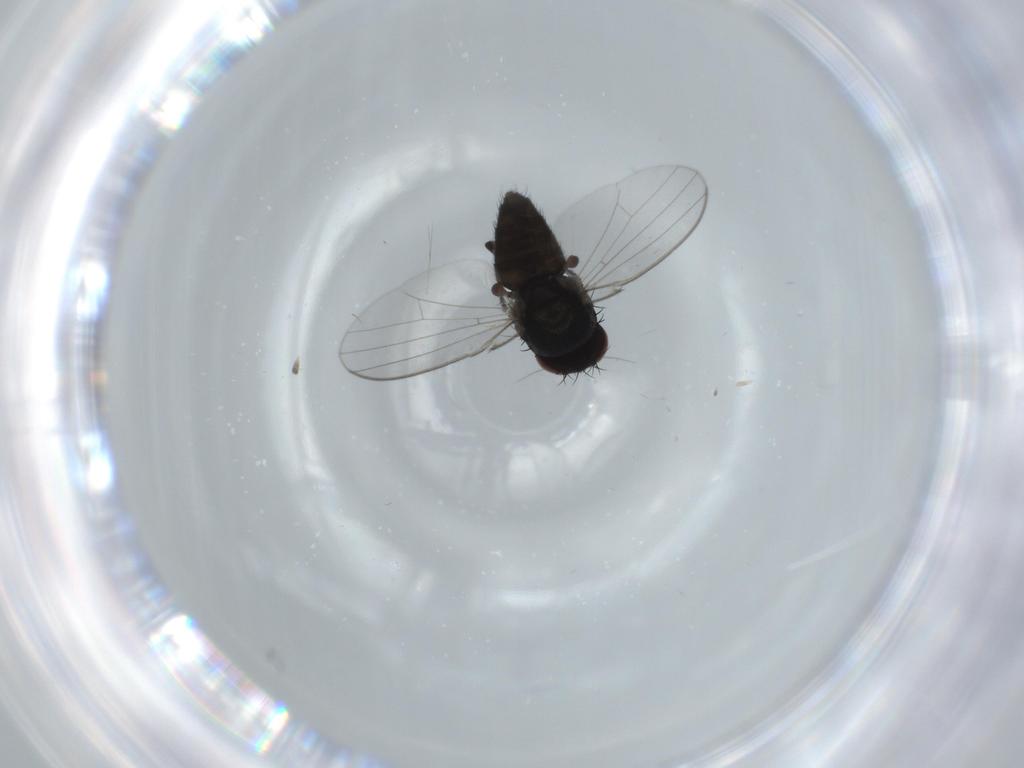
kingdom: Animalia
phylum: Arthropoda
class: Insecta
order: Diptera
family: Milichiidae
